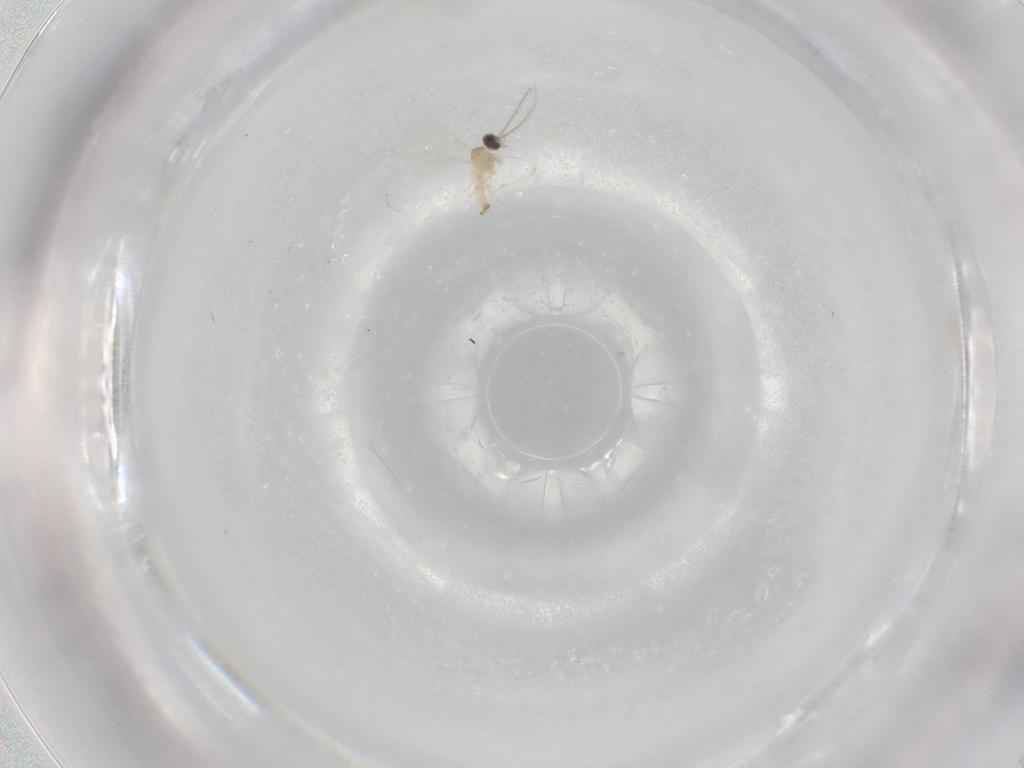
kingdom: Animalia
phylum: Arthropoda
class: Insecta
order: Diptera
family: Cecidomyiidae
